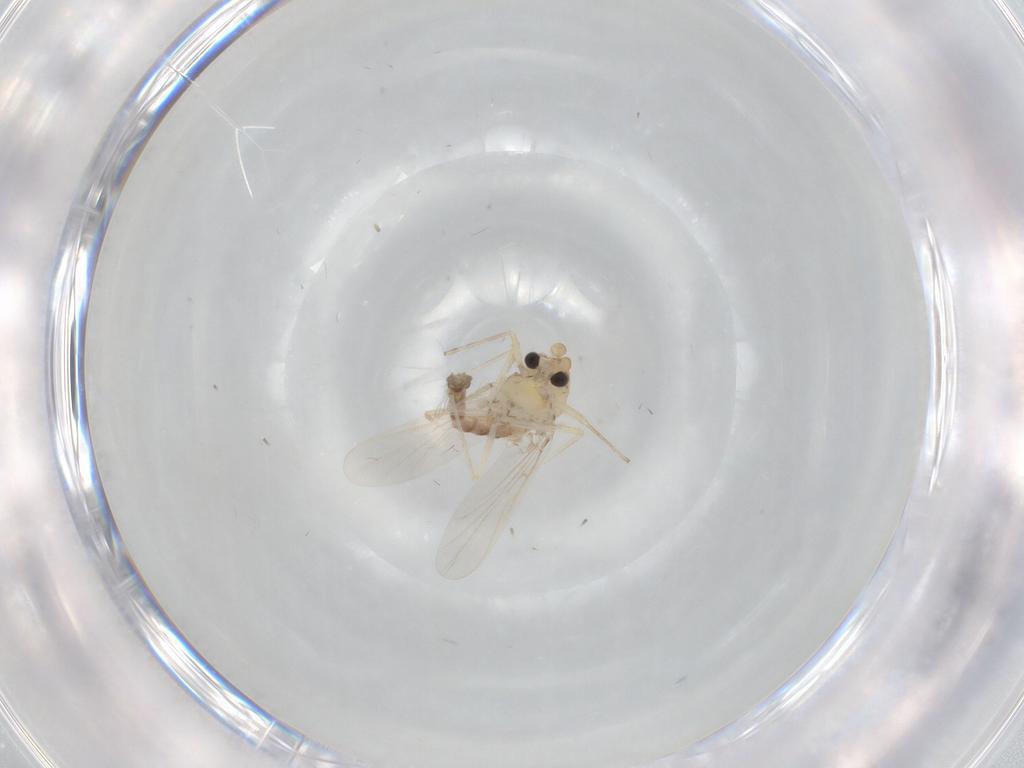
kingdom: Animalia
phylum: Arthropoda
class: Insecta
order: Diptera
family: Chironomidae
